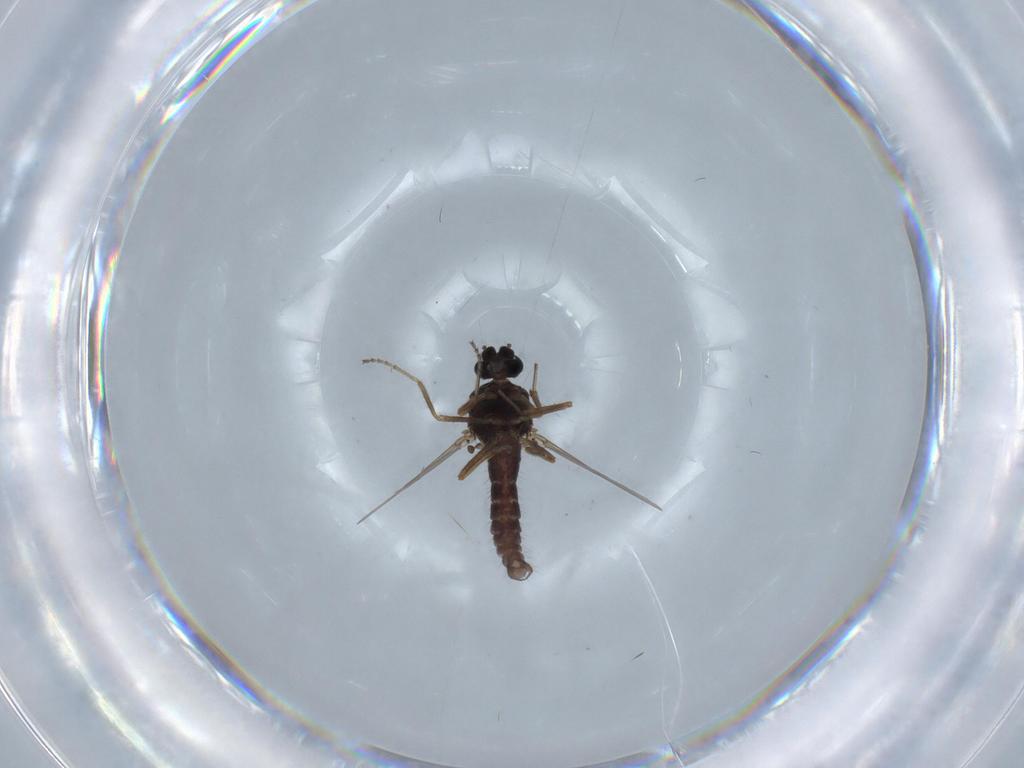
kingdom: Animalia
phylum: Arthropoda
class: Insecta
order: Diptera
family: Ceratopogonidae
